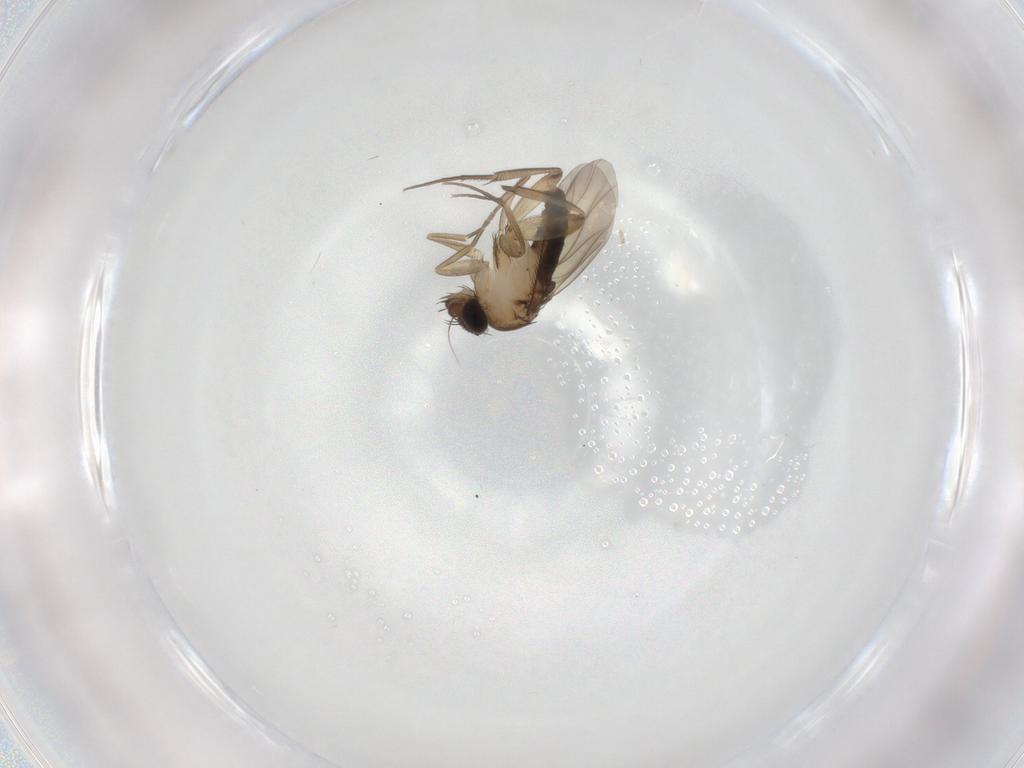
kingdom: Animalia
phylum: Arthropoda
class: Insecta
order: Diptera
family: Phoridae
